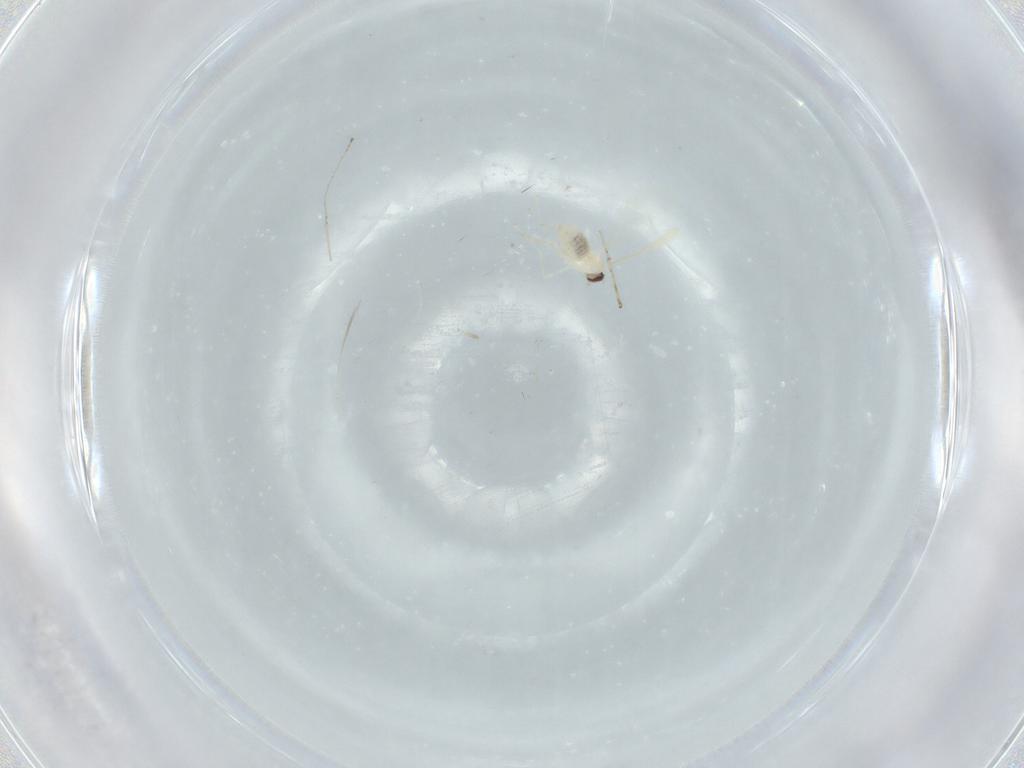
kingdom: Animalia
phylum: Arthropoda
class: Insecta
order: Diptera
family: Cecidomyiidae
